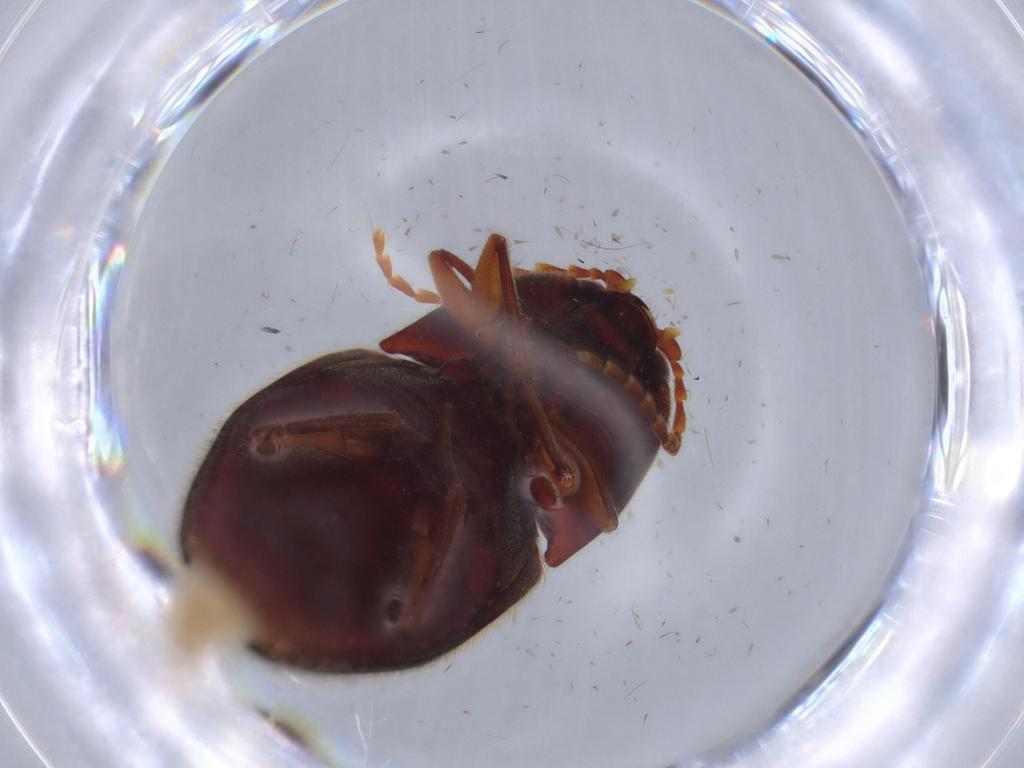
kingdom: Animalia
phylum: Arthropoda
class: Insecta
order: Coleoptera
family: Elateridae
